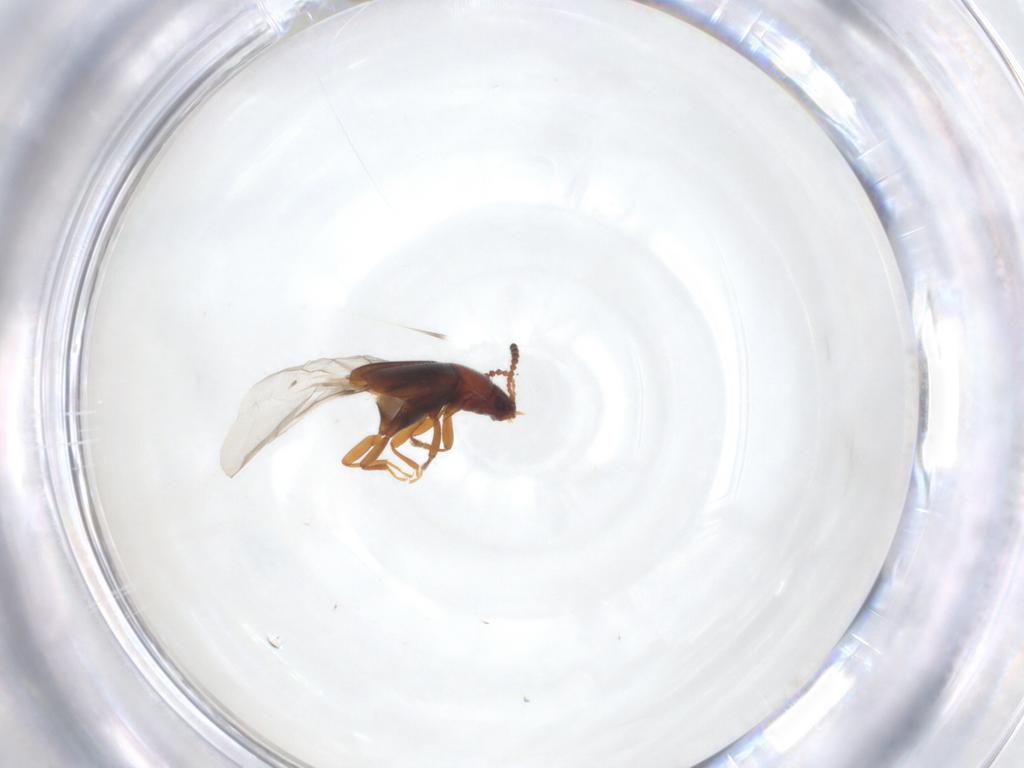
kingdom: Animalia
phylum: Arthropoda
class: Insecta
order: Coleoptera
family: Staphylinidae
